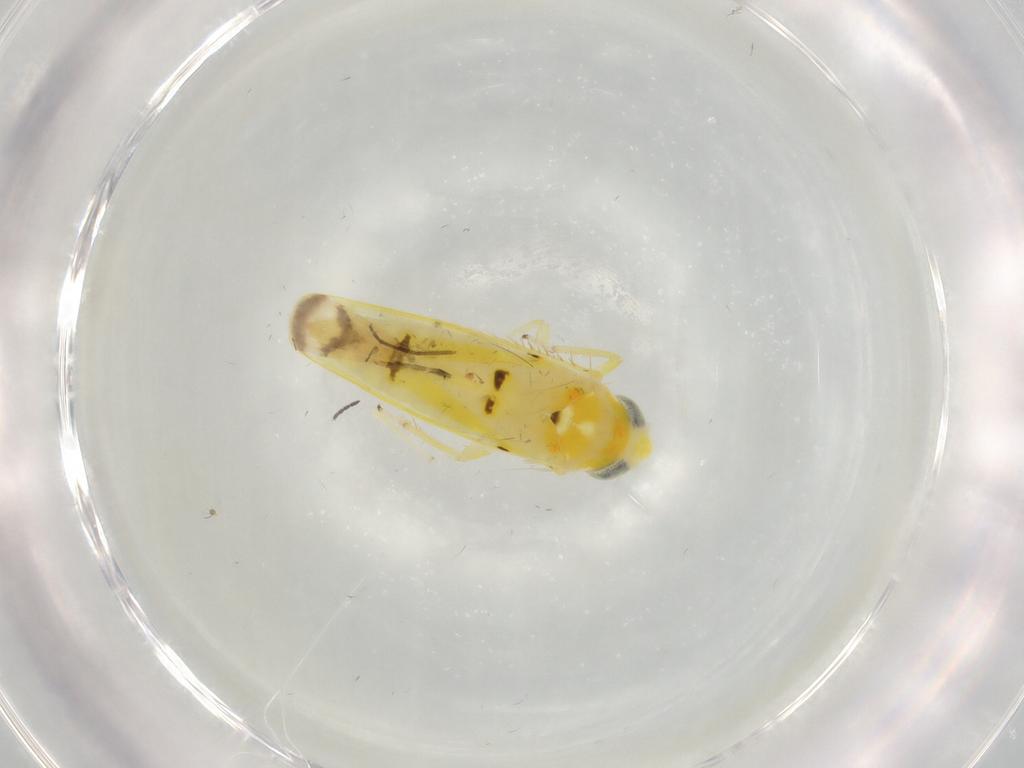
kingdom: Animalia
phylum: Arthropoda
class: Insecta
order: Hemiptera
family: Cicadellidae
